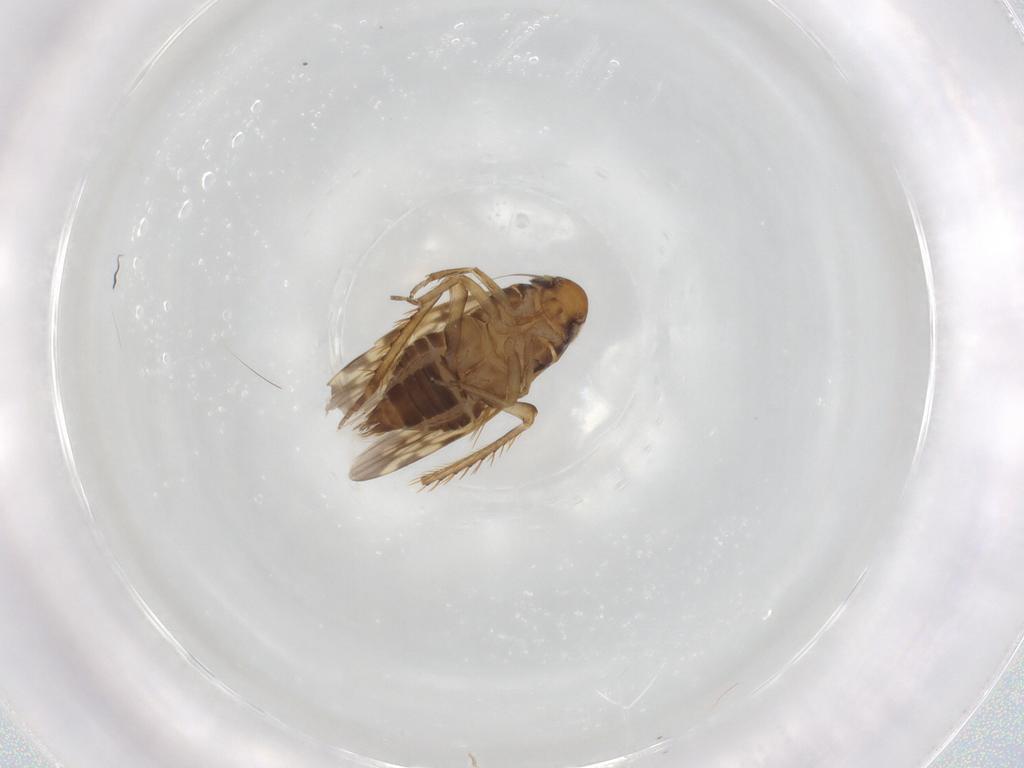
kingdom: Animalia
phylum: Arthropoda
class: Insecta
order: Hemiptera
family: Cicadellidae
